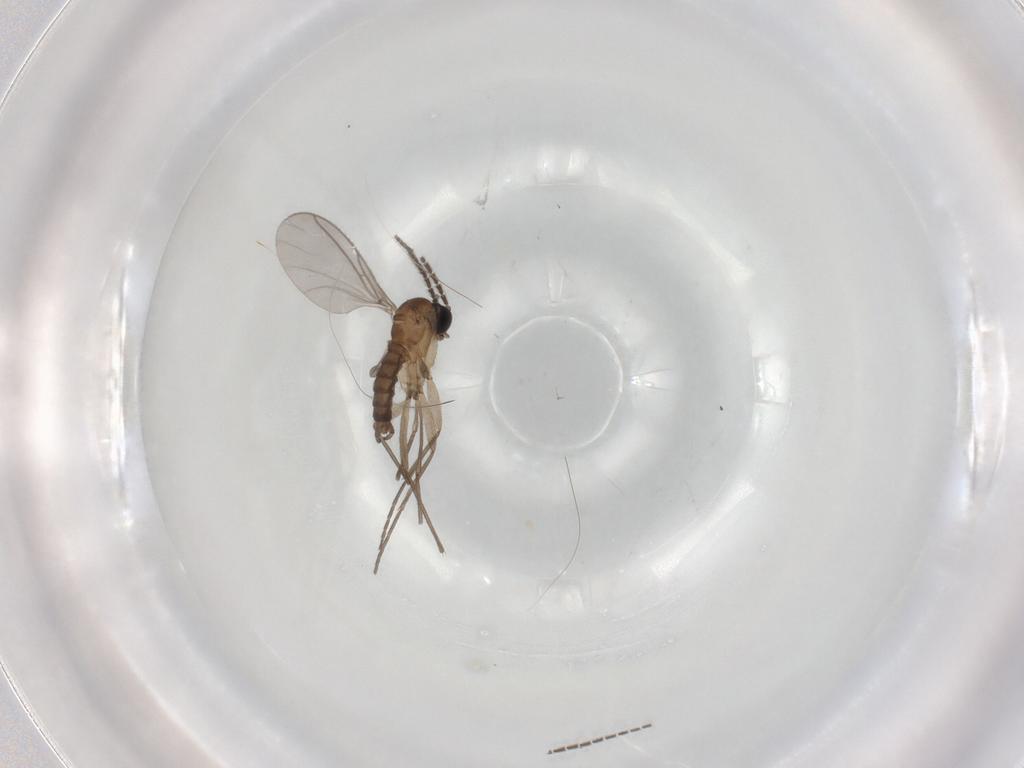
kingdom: Animalia
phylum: Arthropoda
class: Insecta
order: Diptera
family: Sciaridae
